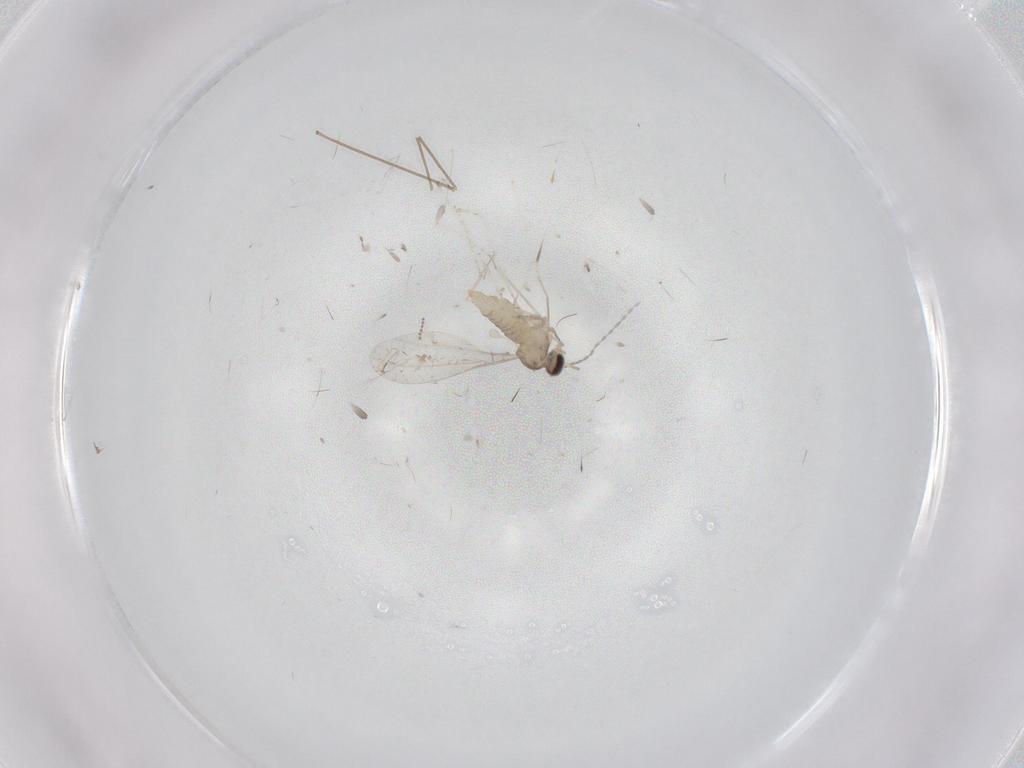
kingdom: Animalia
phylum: Arthropoda
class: Insecta
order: Diptera
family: Cecidomyiidae
